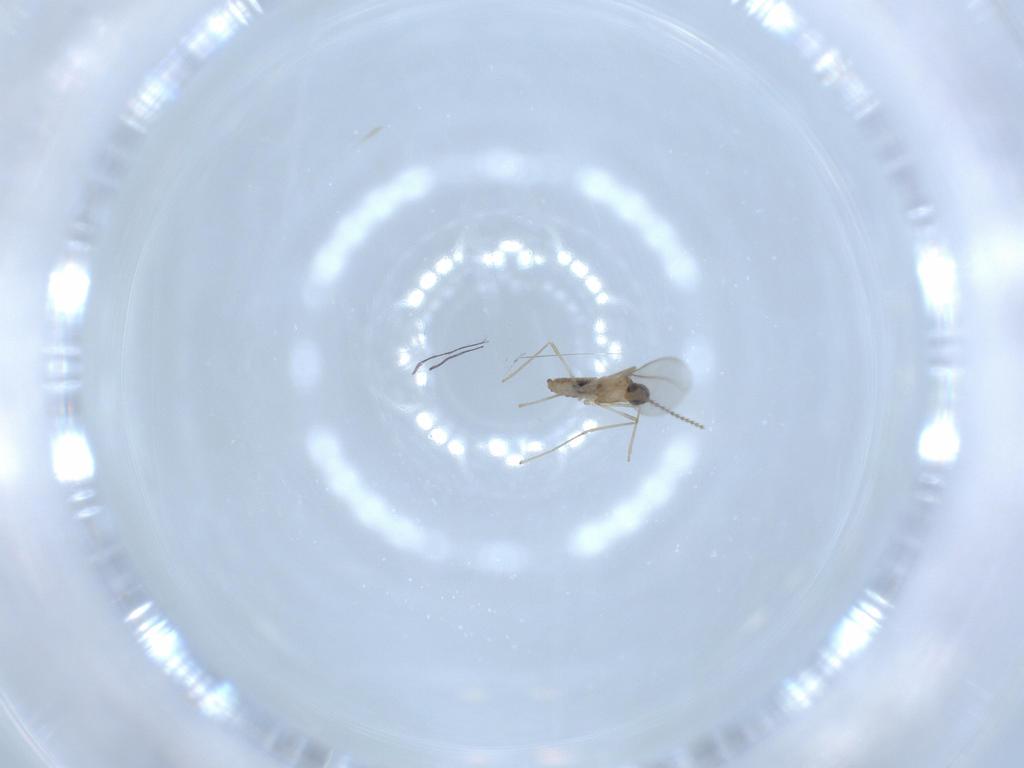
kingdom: Animalia
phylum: Arthropoda
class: Insecta
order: Diptera
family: Cecidomyiidae
